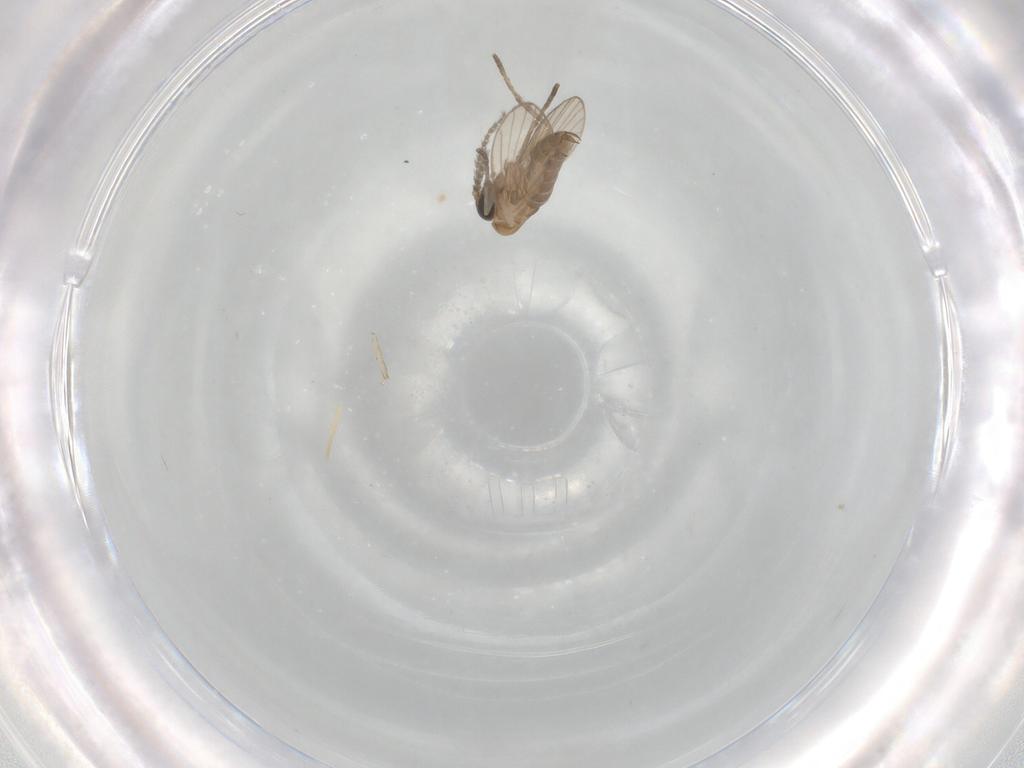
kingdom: Animalia
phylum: Arthropoda
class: Insecta
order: Diptera
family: Psychodidae
